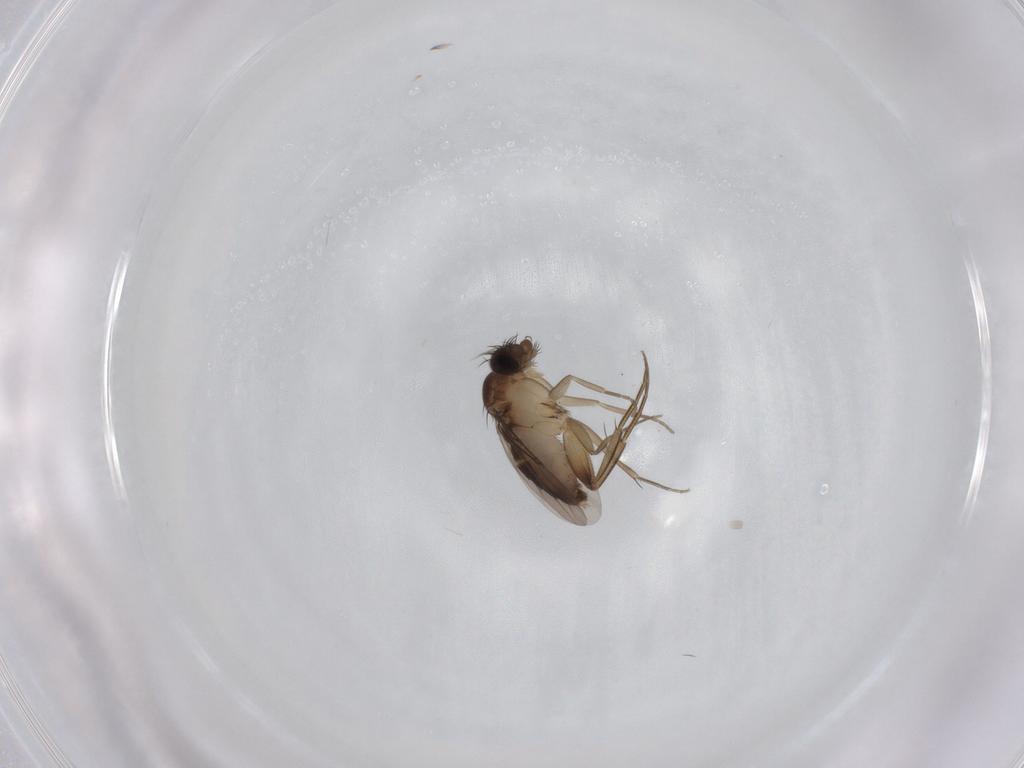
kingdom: Animalia
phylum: Arthropoda
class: Insecta
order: Diptera
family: Phoridae
